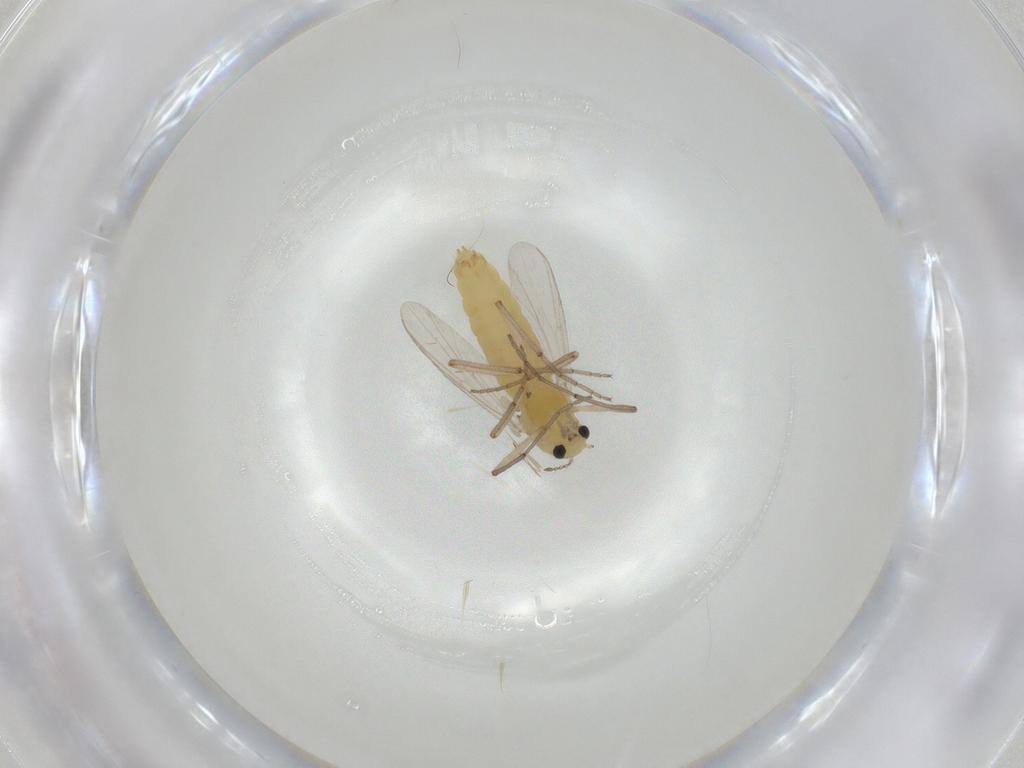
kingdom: Animalia
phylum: Arthropoda
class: Insecta
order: Diptera
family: Chironomidae
